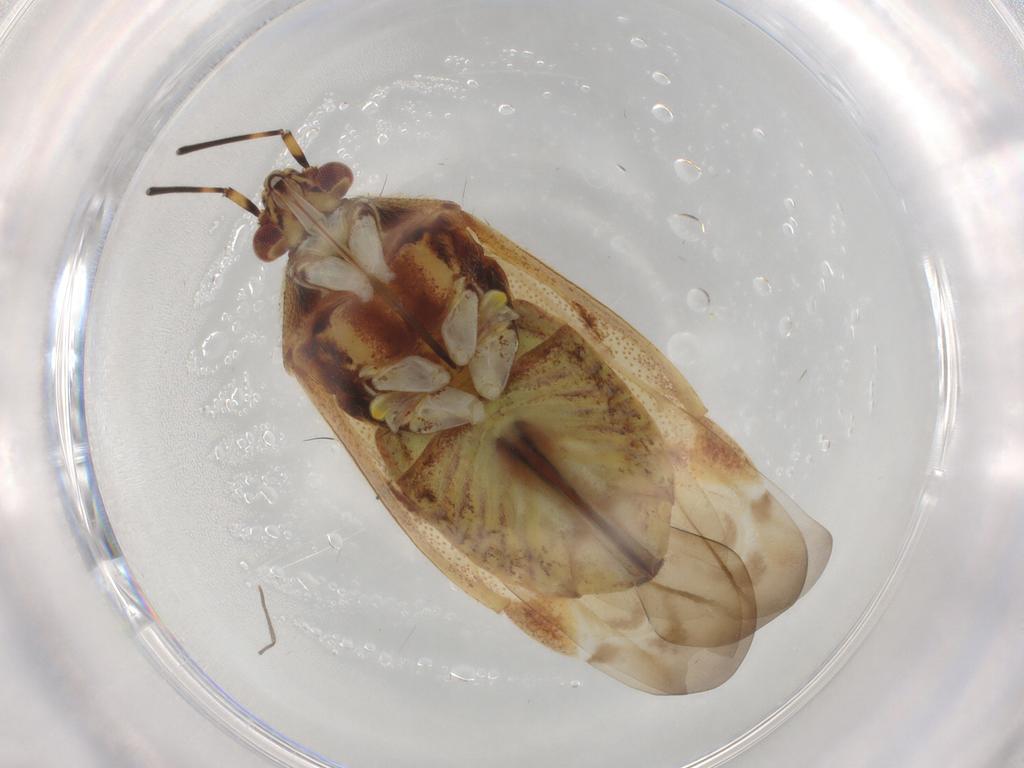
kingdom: Animalia
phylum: Arthropoda
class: Insecta
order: Hemiptera
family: Miridae
